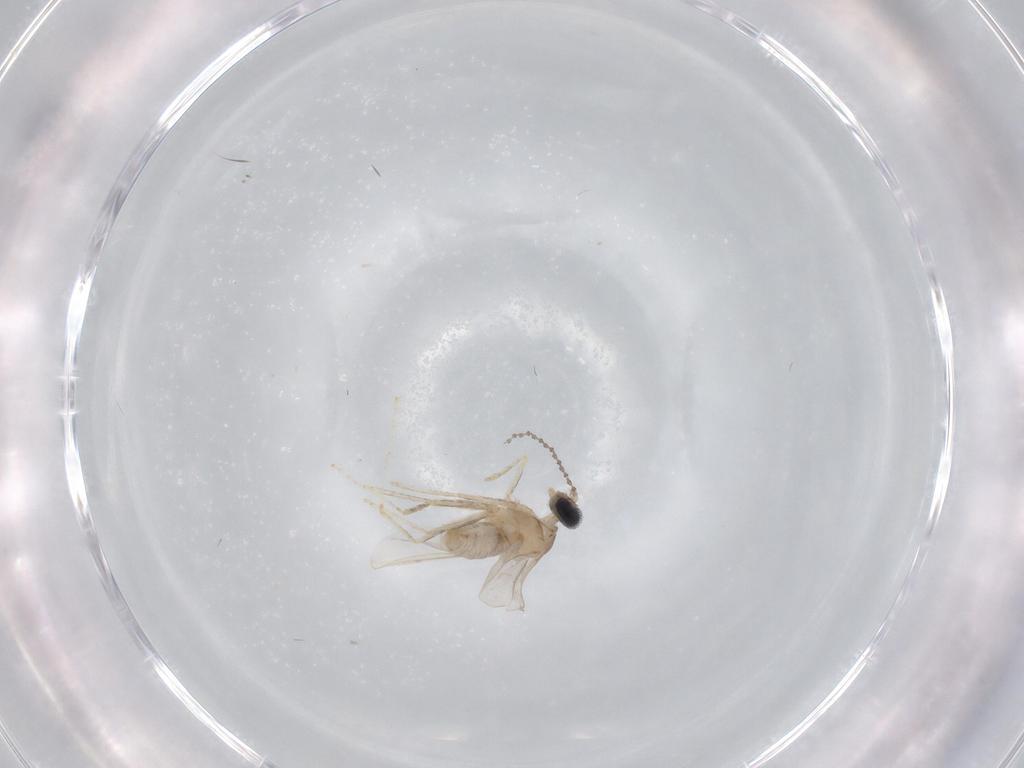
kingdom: Animalia
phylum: Arthropoda
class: Insecta
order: Diptera
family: Cecidomyiidae
